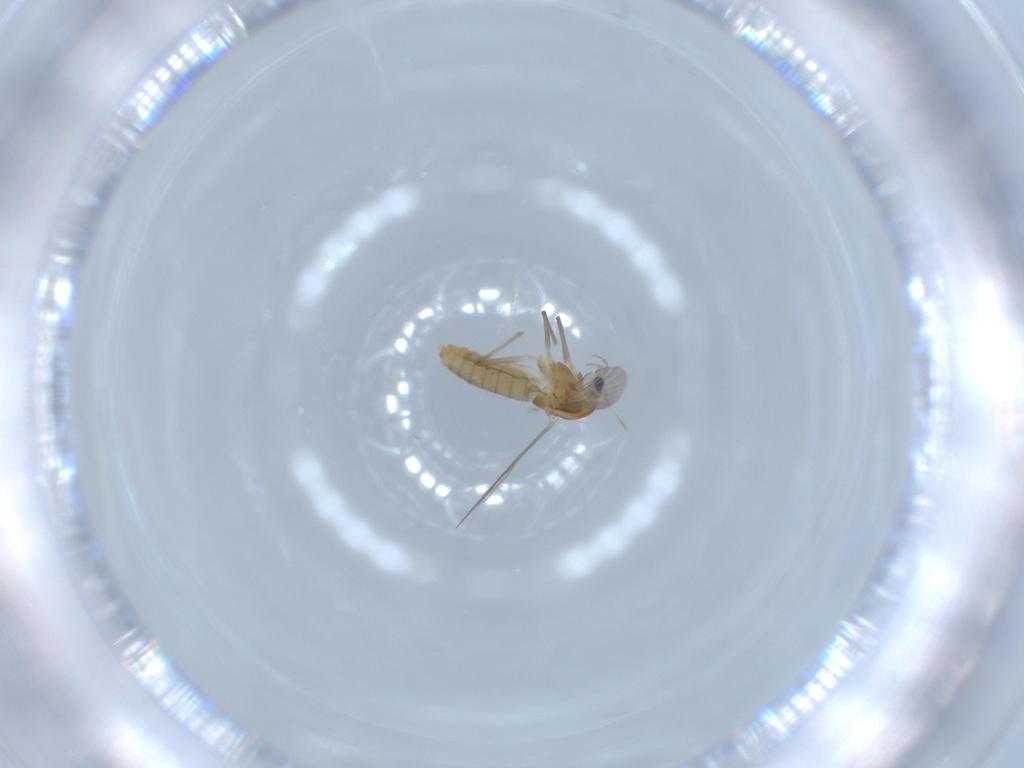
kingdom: Animalia
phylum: Arthropoda
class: Insecta
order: Diptera
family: Chironomidae
